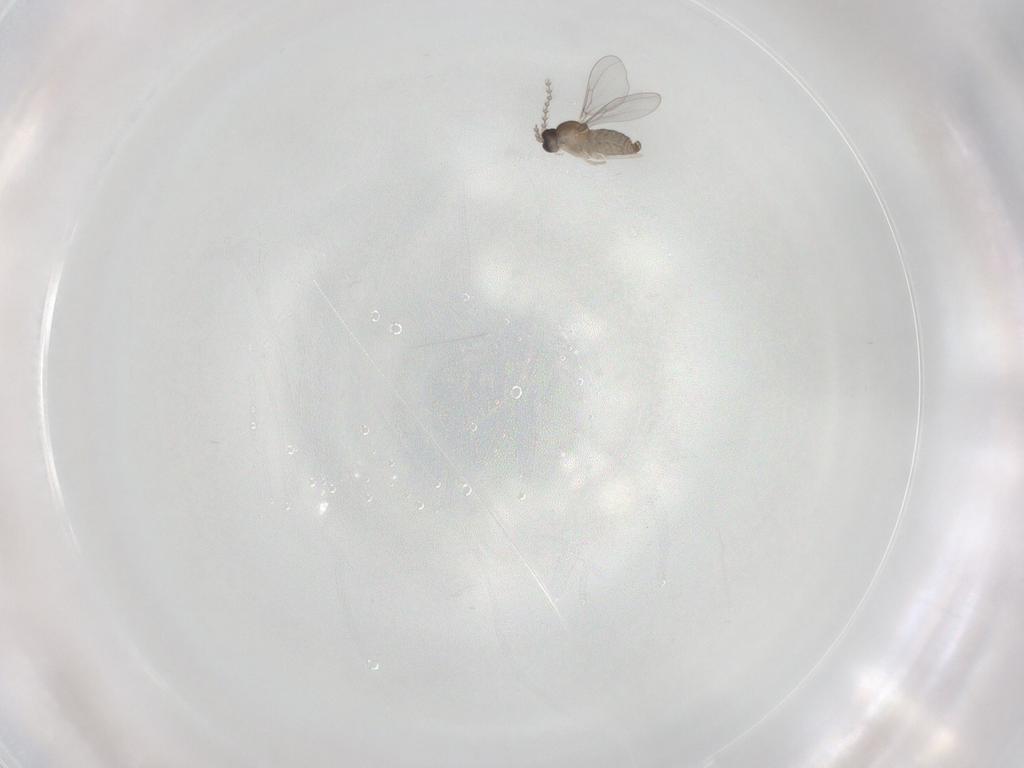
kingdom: Animalia
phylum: Arthropoda
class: Insecta
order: Diptera
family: Cecidomyiidae
